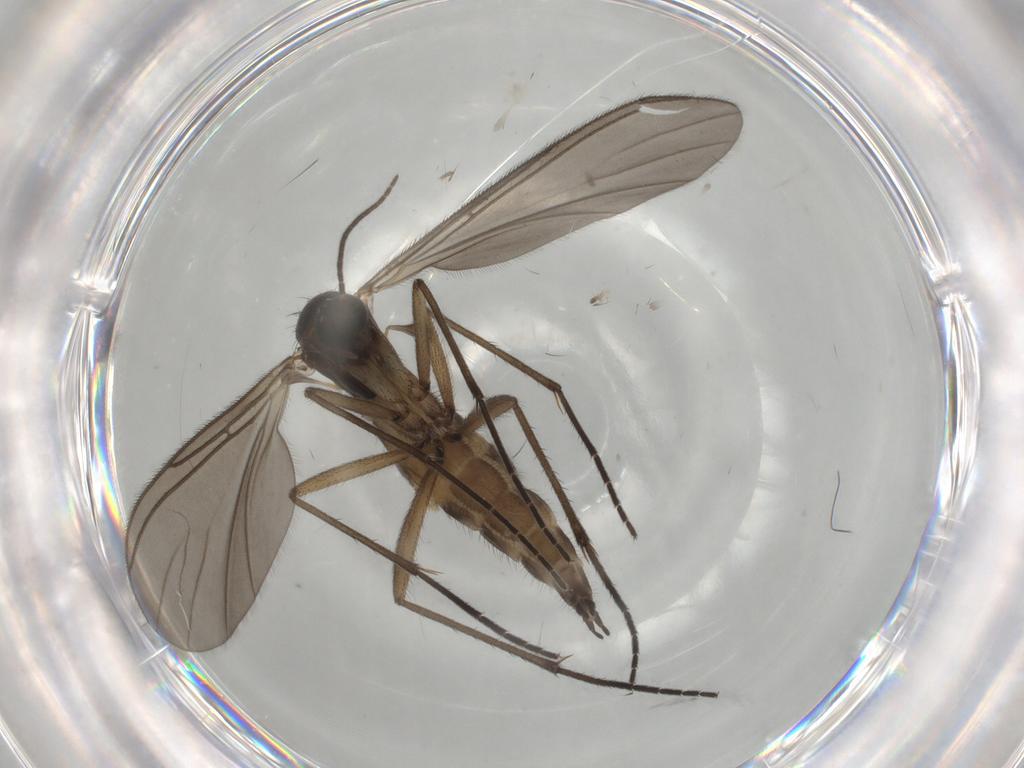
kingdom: Animalia
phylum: Arthropoda
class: Insecta
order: Diptera
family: Sciaridae
